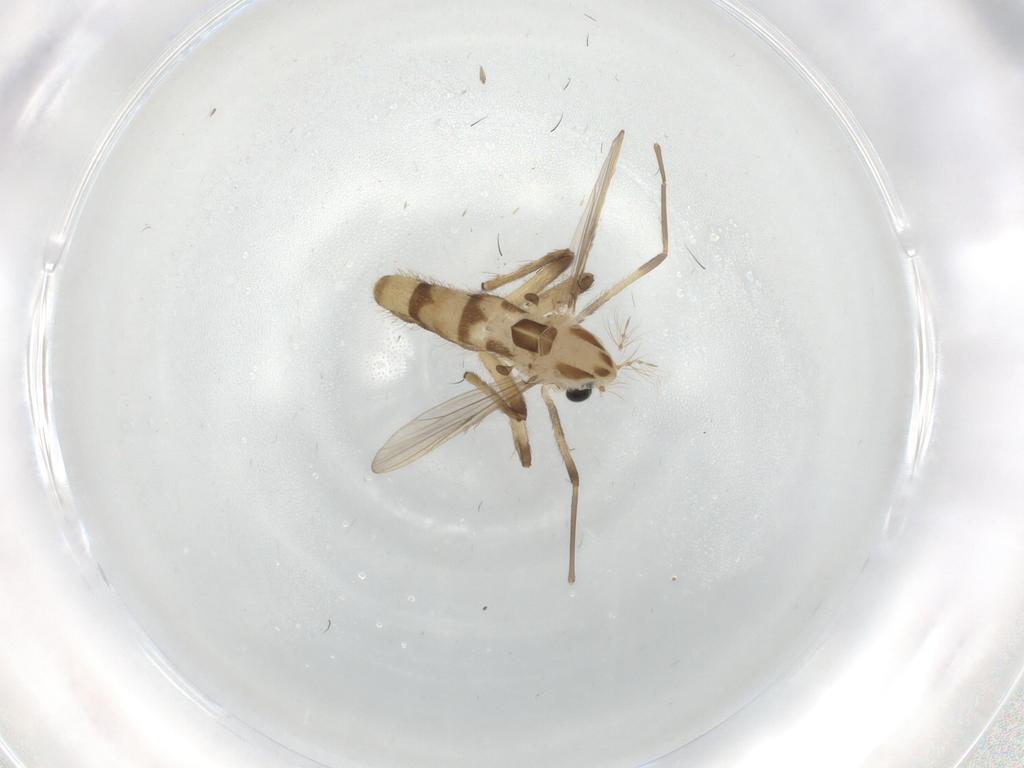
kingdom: Animalia
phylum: Arthropoda
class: Insecta
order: Diptera
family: Chironomidae
